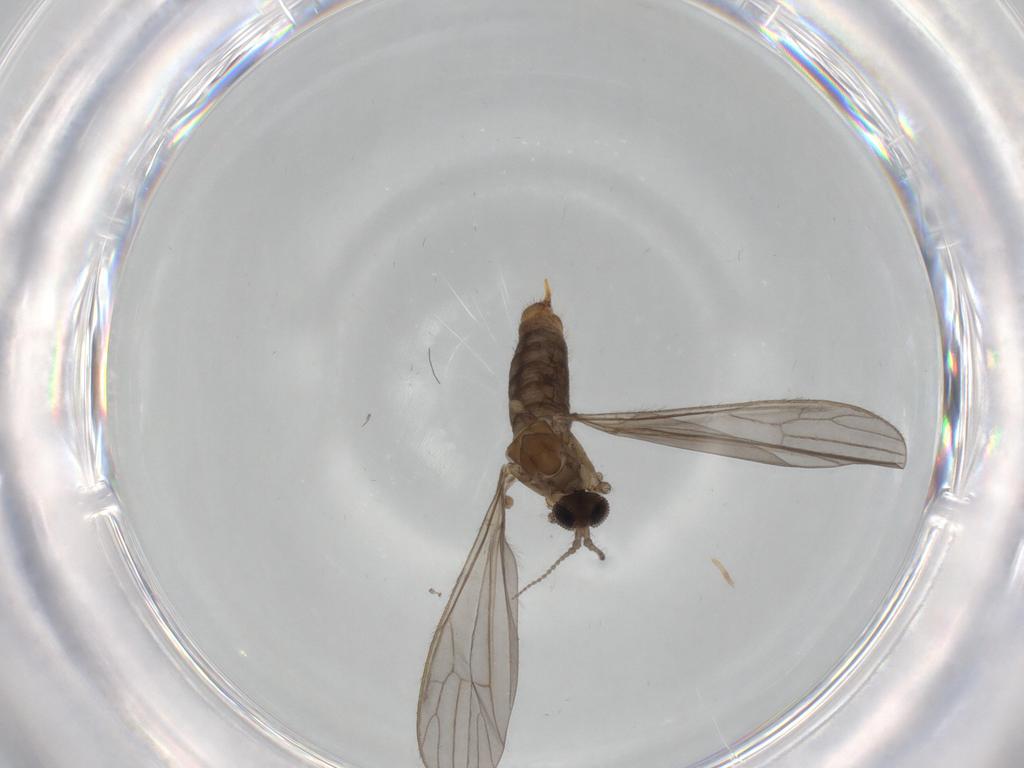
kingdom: Animalia
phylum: Arthropoda
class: Insecta
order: Diptera
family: Limoniidae
